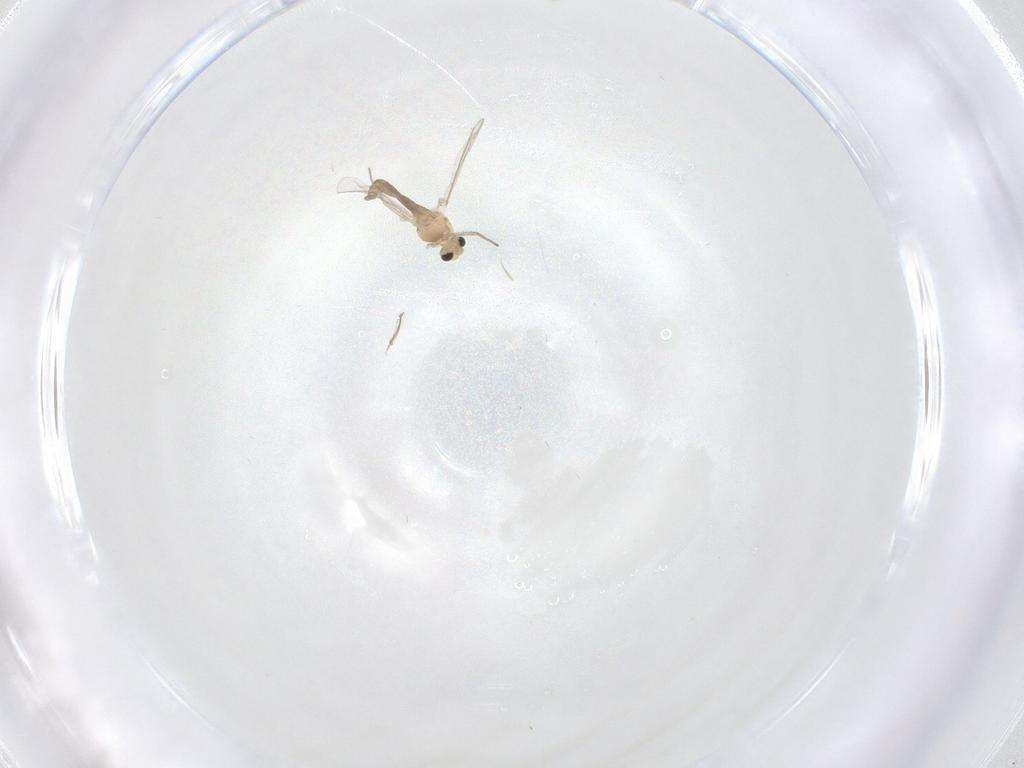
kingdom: Animalia
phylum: Arthropoda
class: Insecta
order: Diptera
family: Chironomidae
